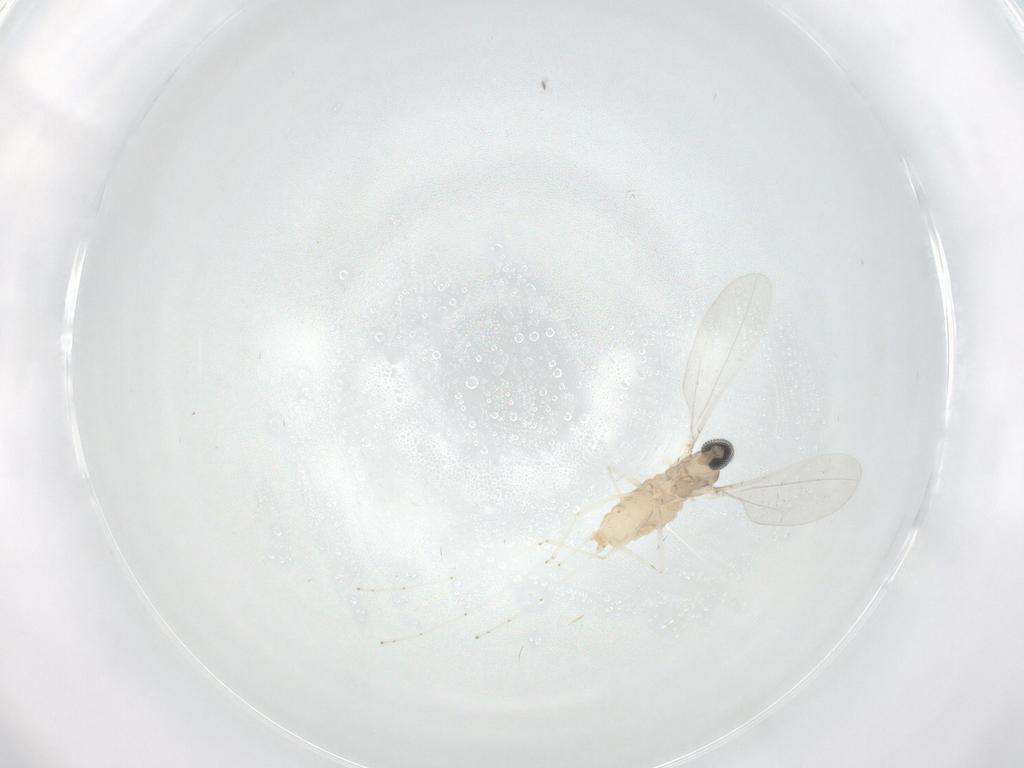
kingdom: Animalia
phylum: Arthropoda
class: Insecta
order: Diptera
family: Cecidomyiidae
